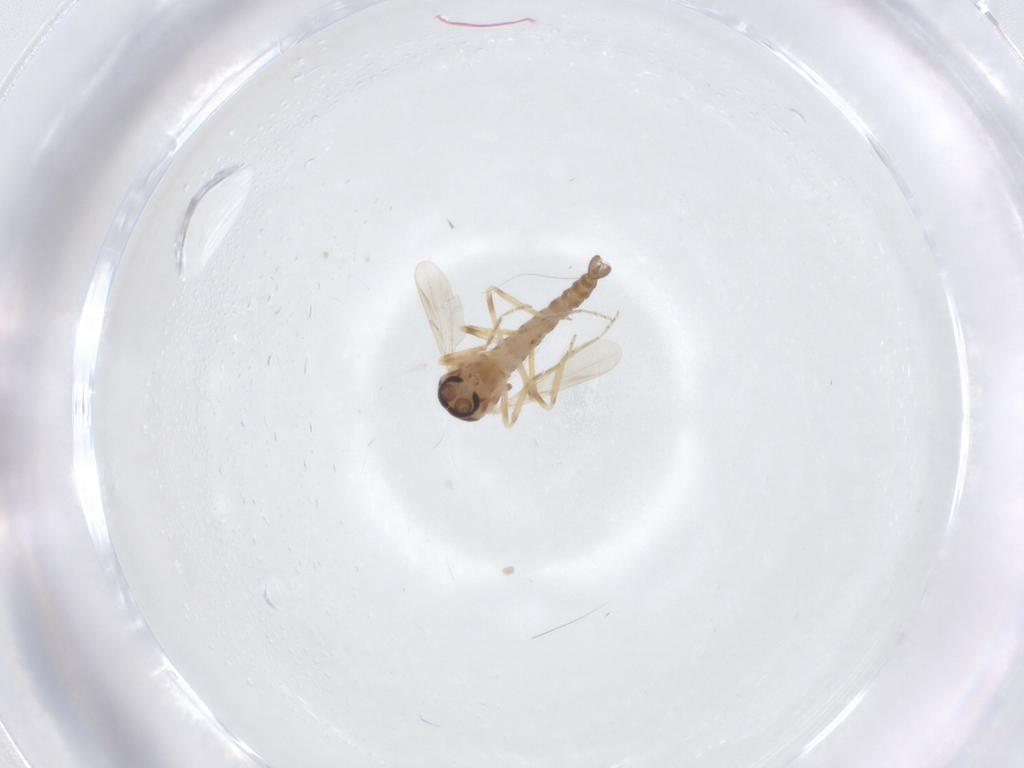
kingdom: Animalia
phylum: Arthropoda
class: Insecta
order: Diptera
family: Ceratopogonidae
